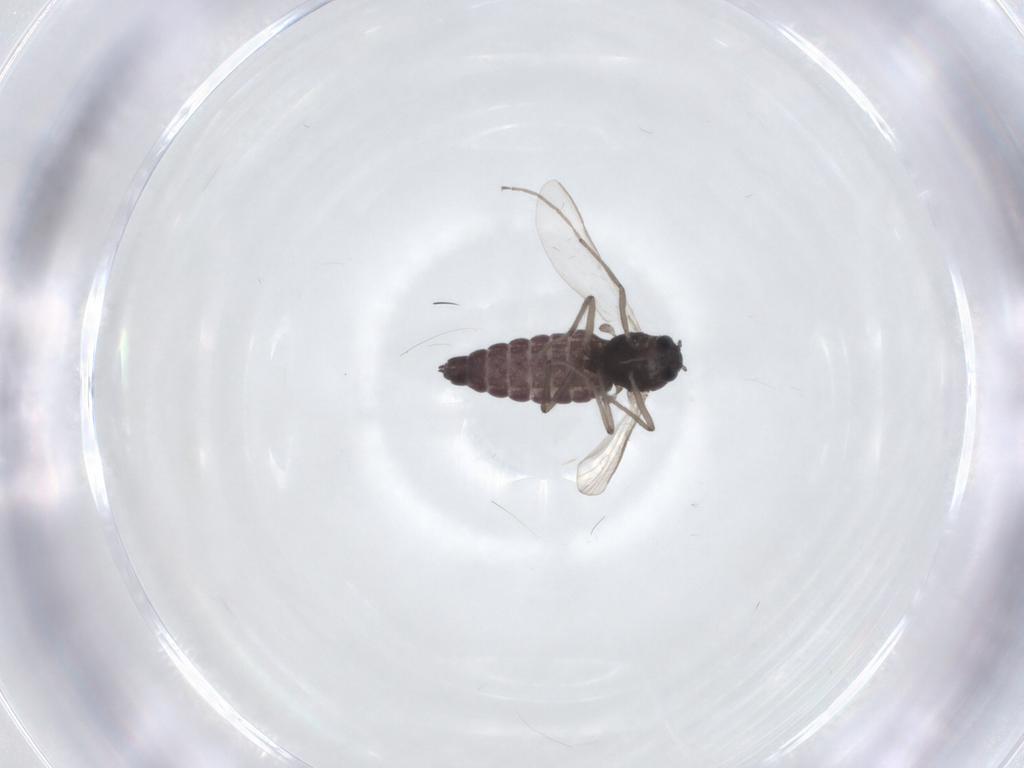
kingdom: Animalia
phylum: Arthropoda
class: Insecta
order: Diptera
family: Chironomidae
